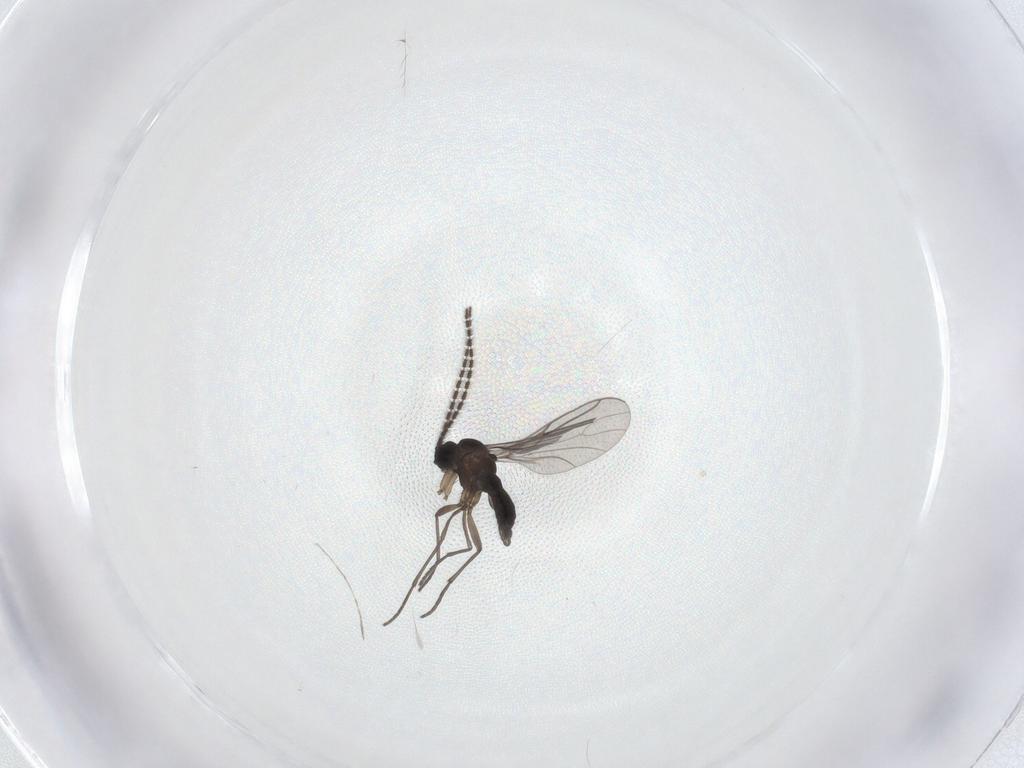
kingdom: Animalia
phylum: Arthropoda
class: Insecta
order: Diptera
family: Sciaridae
